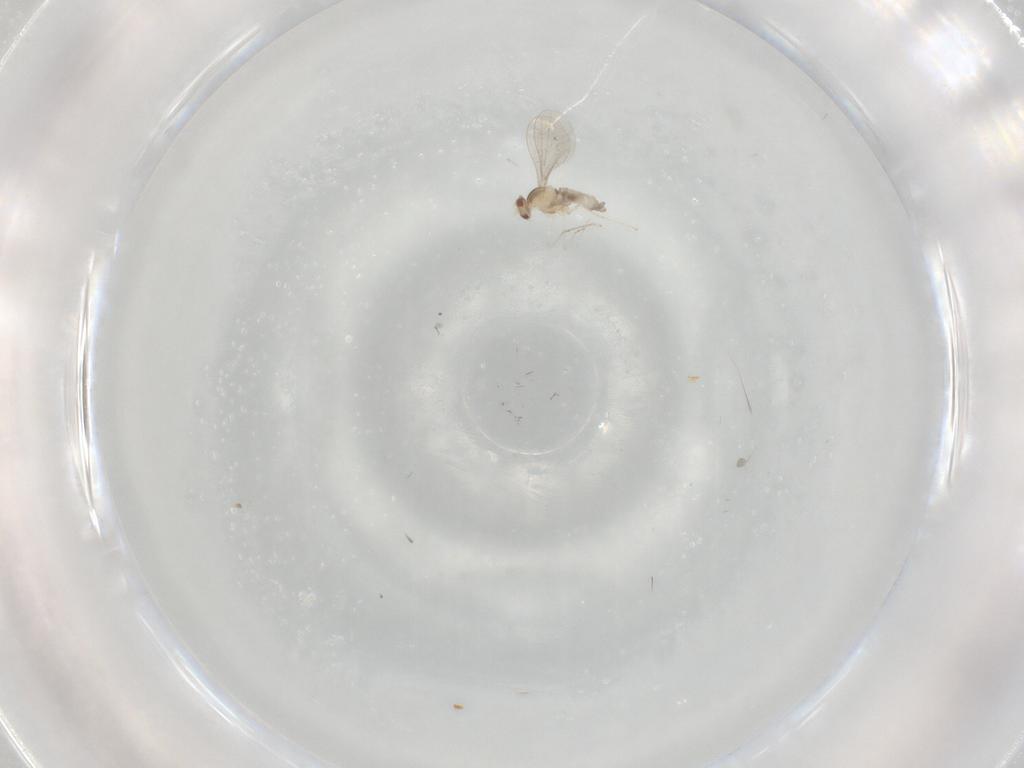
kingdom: Animalia
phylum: Arthropoda
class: Insecta
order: Diptera
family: Cecidomyiidae
